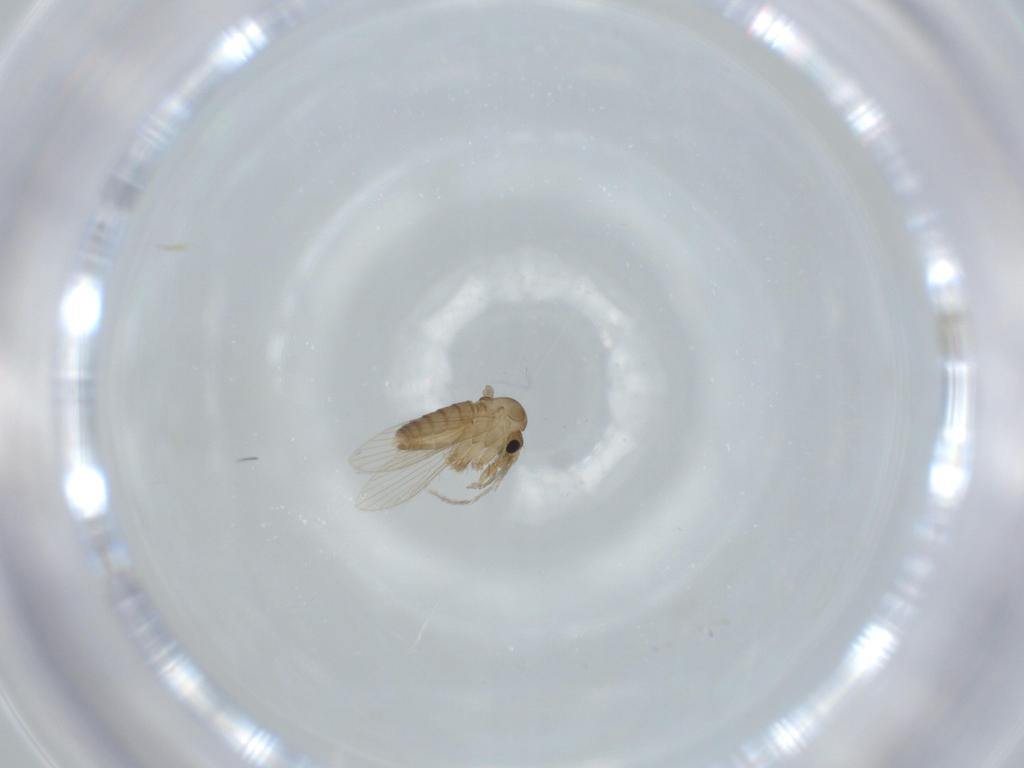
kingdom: Animalia
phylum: Arthropoda
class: Insecta
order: Diptera
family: Psychodidae
